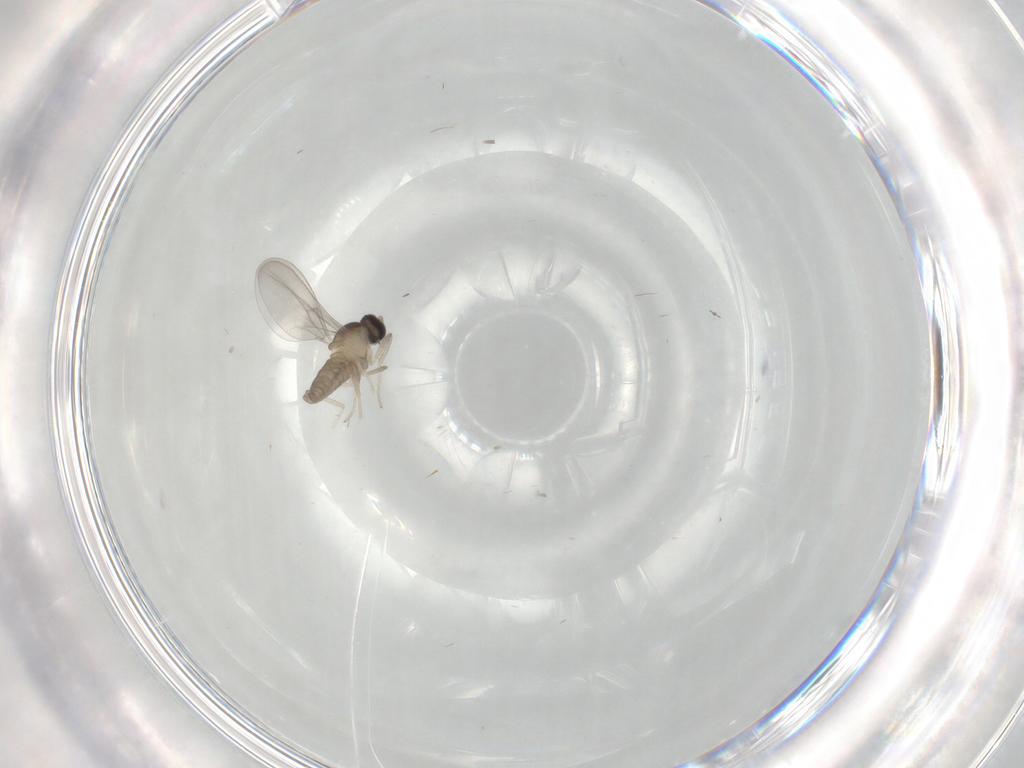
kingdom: Animalia
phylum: Arthropoda
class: Insecta
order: Diptera
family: Cecidomyiidae
